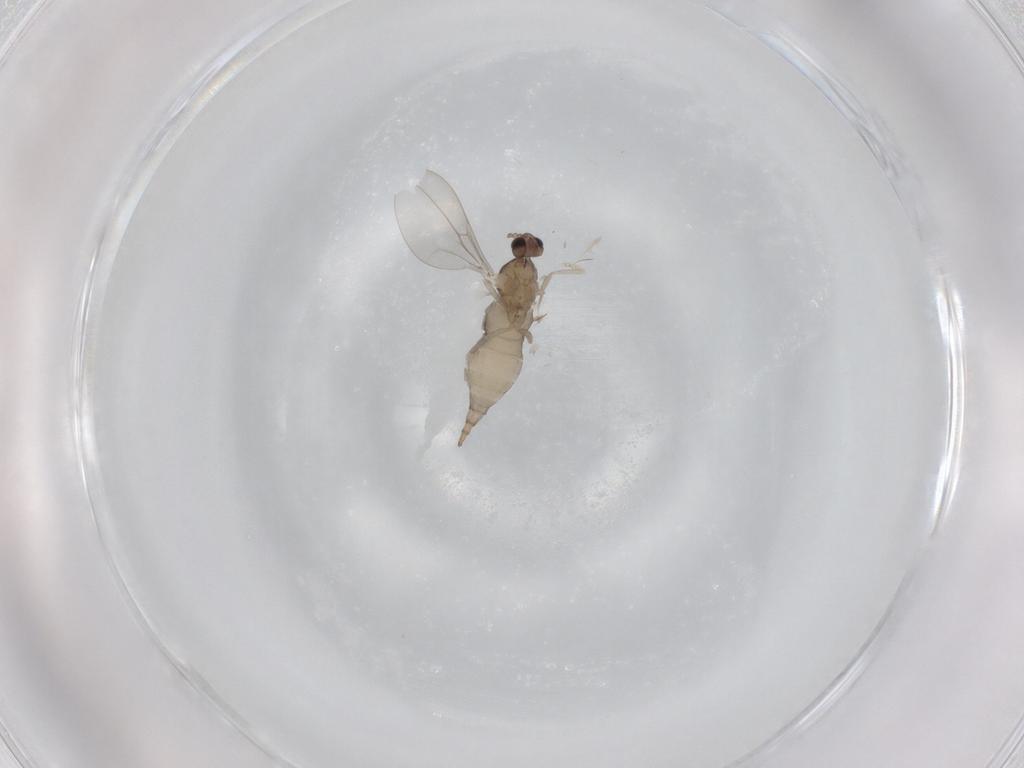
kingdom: Animalia
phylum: Arthropoda
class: Insecta
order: Diptera
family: Cecidomyiidae
